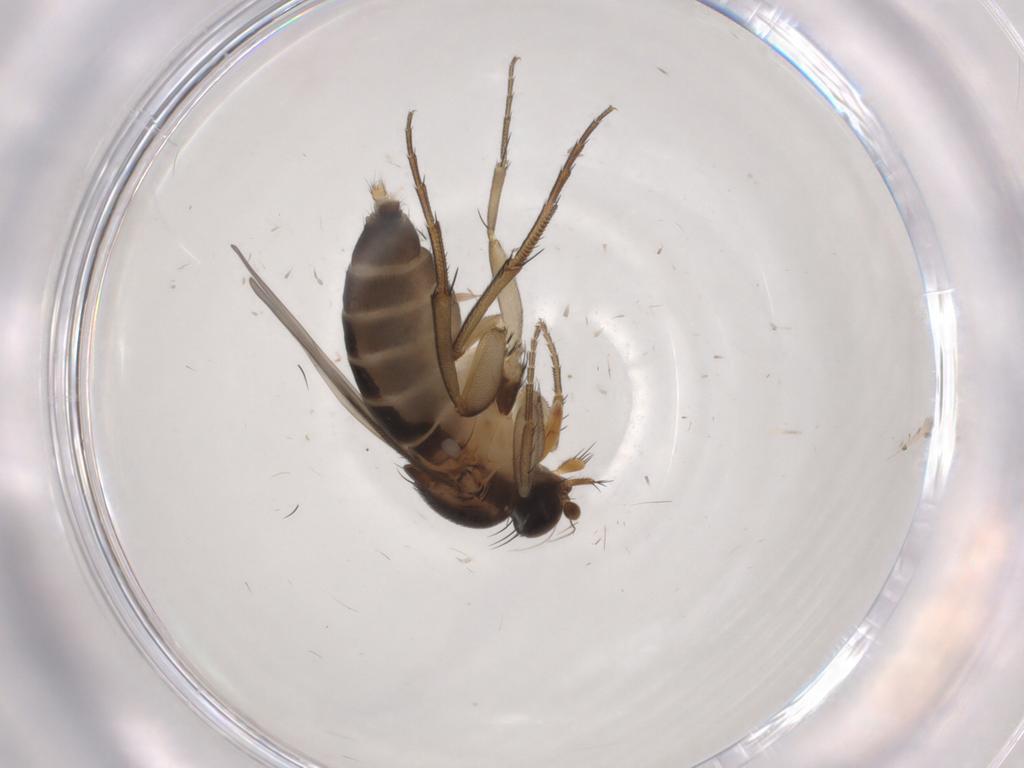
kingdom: Animalia
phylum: Arthropoda
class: Insecta
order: Diptera
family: Phoridae
